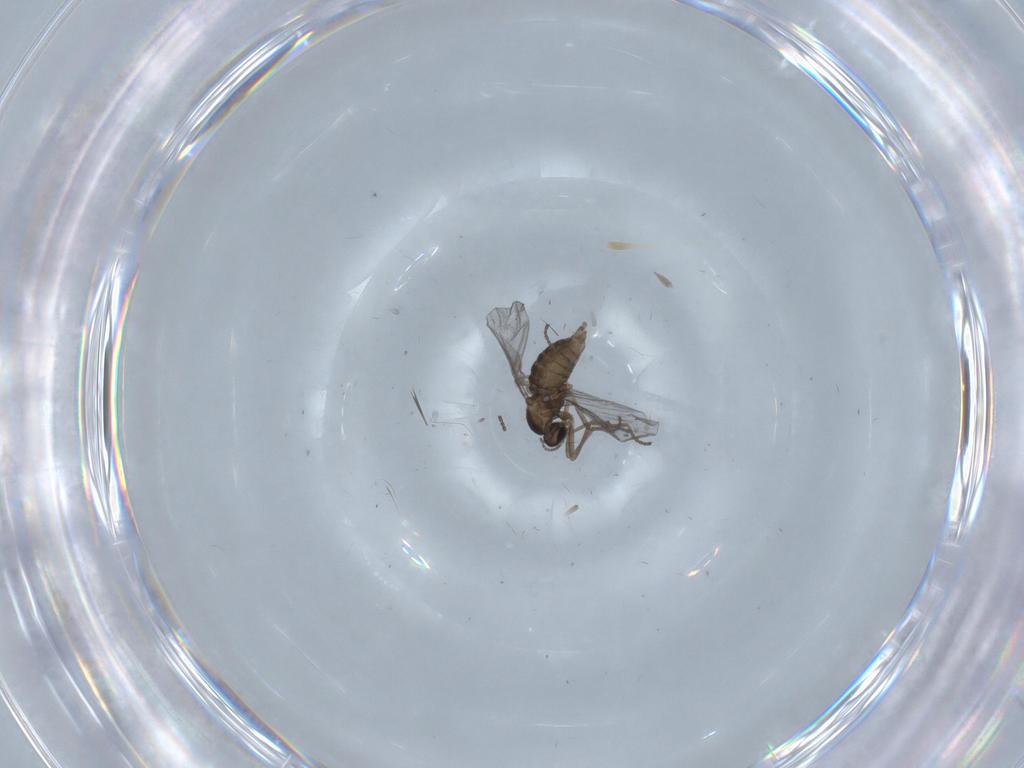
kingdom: Animalia
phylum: Arthropoda
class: Insecta
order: Diptera
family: Cecidomyiidae
